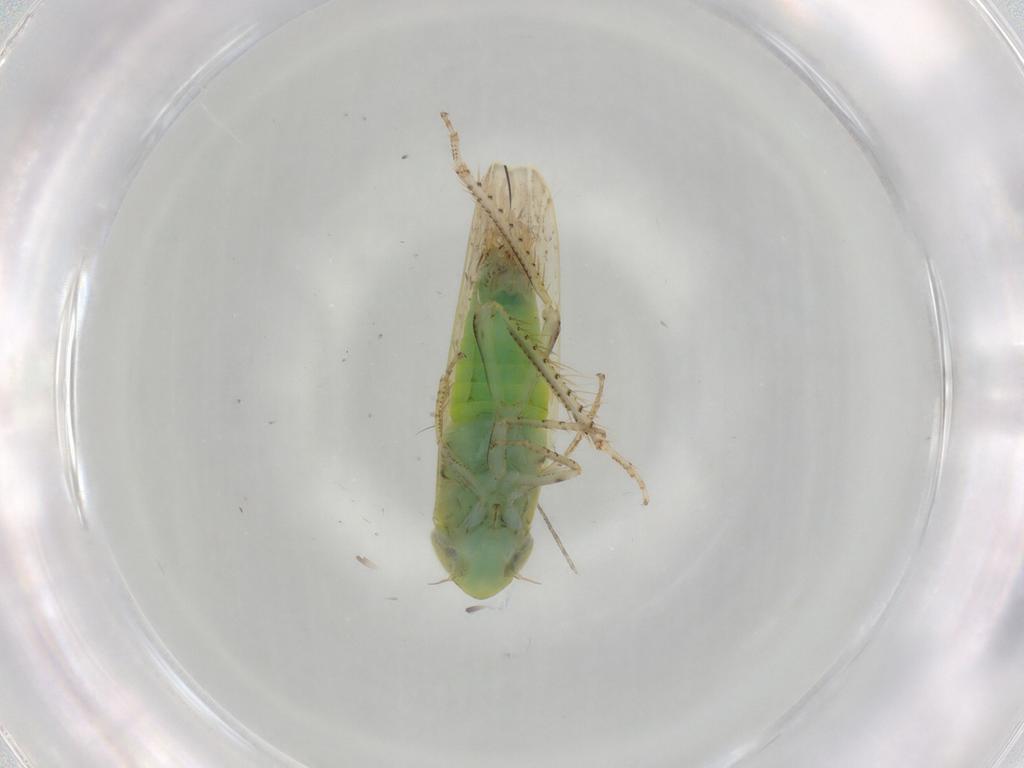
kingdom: Animalia
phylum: Arthropoda
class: Insecta
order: Hemiptera
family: Cicadellidae
